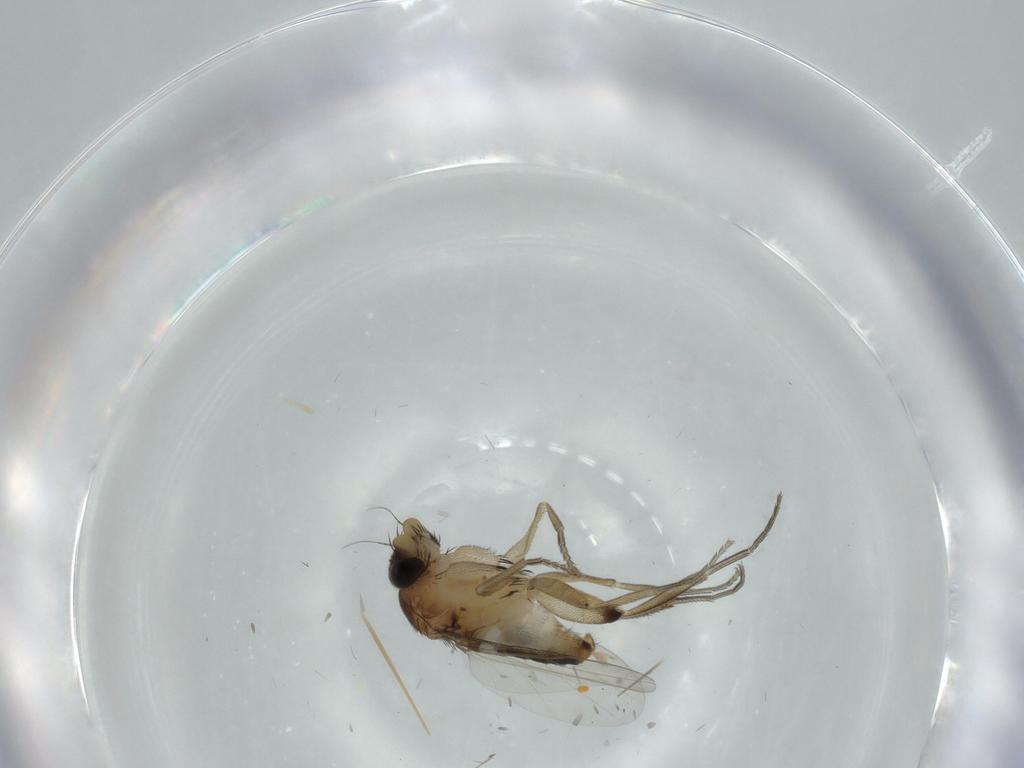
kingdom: Animalia
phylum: Arthropoda
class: Insecta
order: Diptera
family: Phoridae
